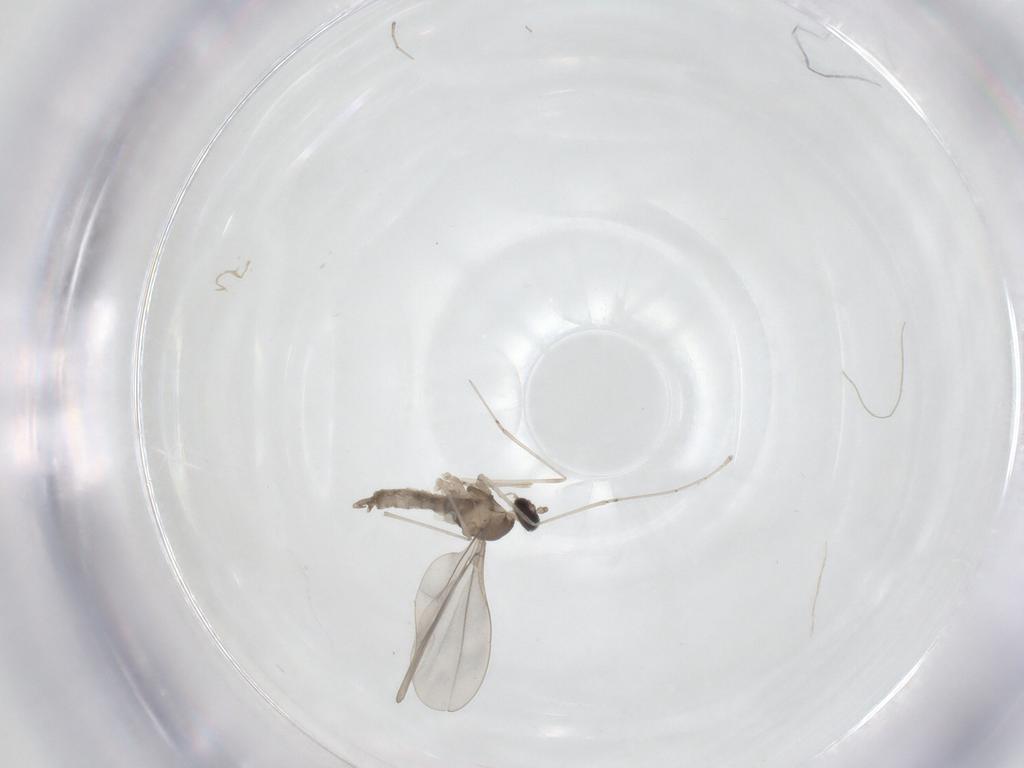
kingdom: Animalia
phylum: Arthropoda
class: Insecta
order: Diptera
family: Cecidomyiidae
